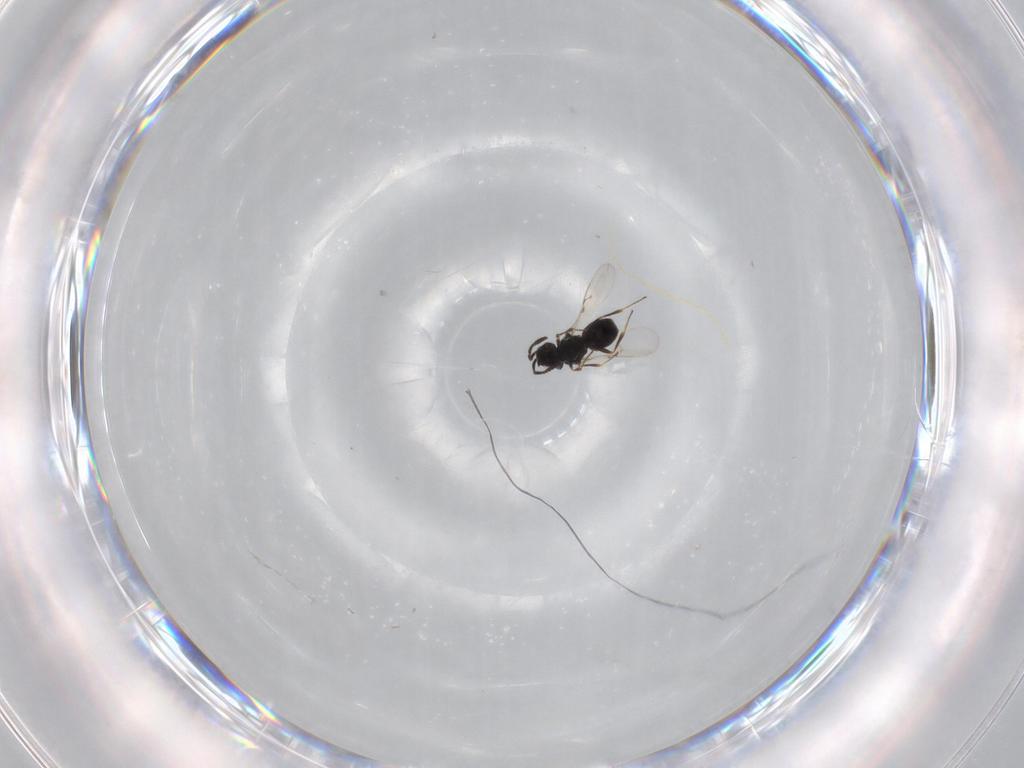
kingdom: Animalia
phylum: Arthropoda
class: Insecta
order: Hymenoptera
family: Scelionidae
